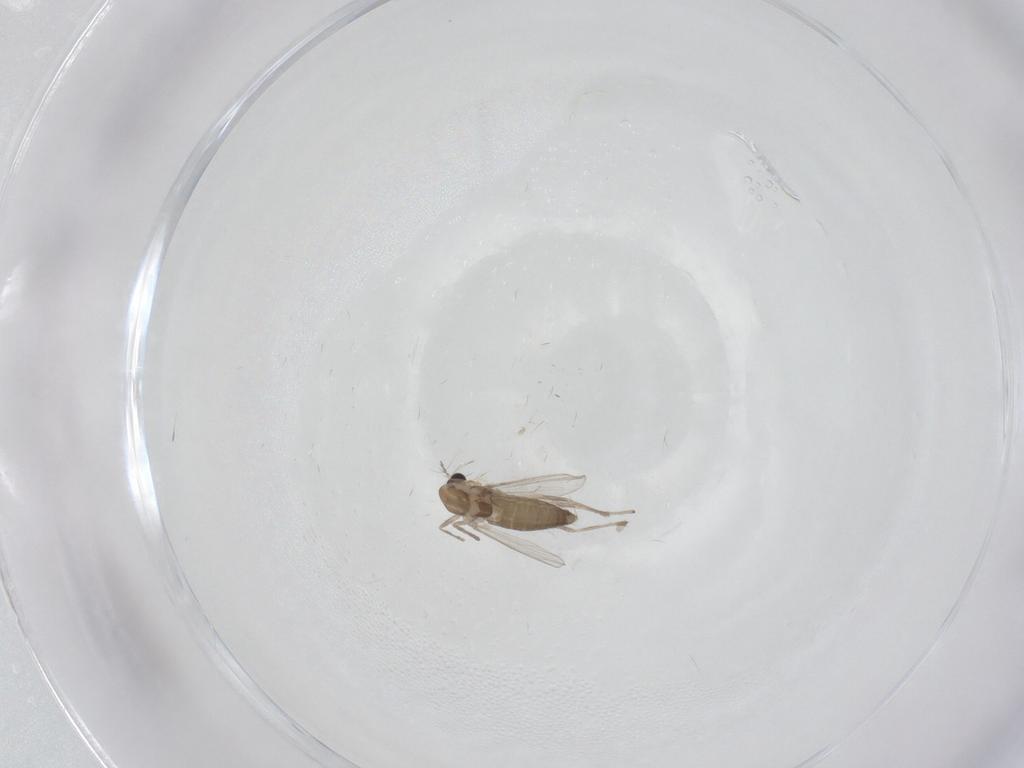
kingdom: Animalia
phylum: Arthropoda
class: Insecta
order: Diptera
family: Chironomidae
